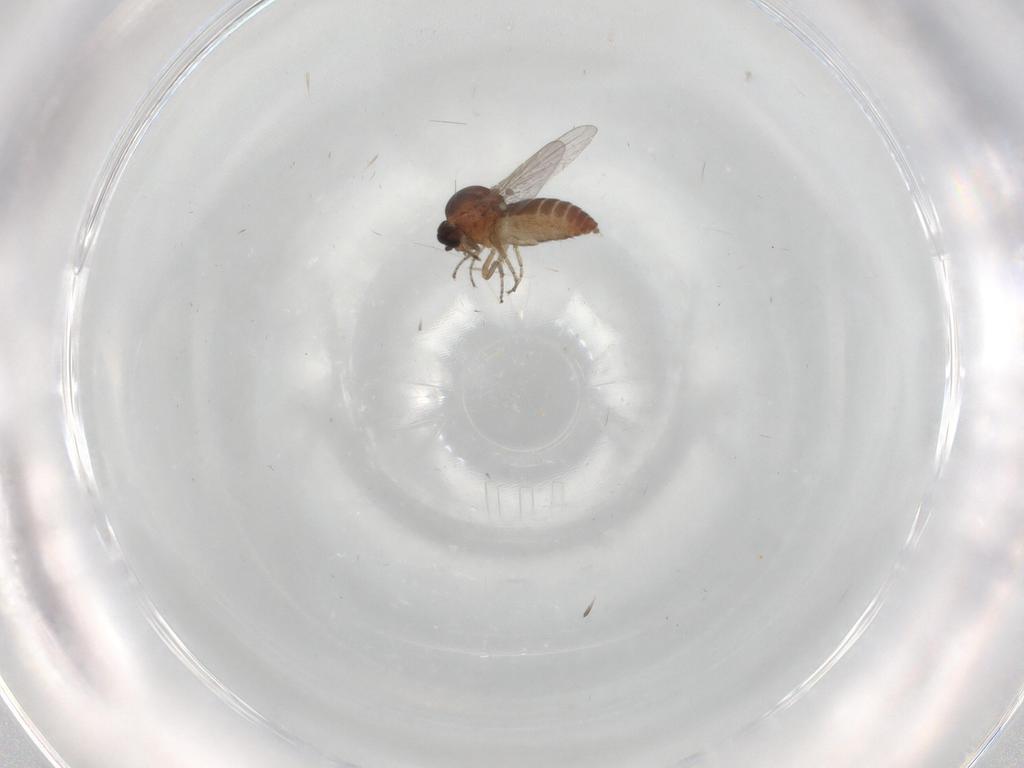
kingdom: Animalia
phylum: Arthropoda
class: Insecta
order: Diptera
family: Ceratopogonidae
